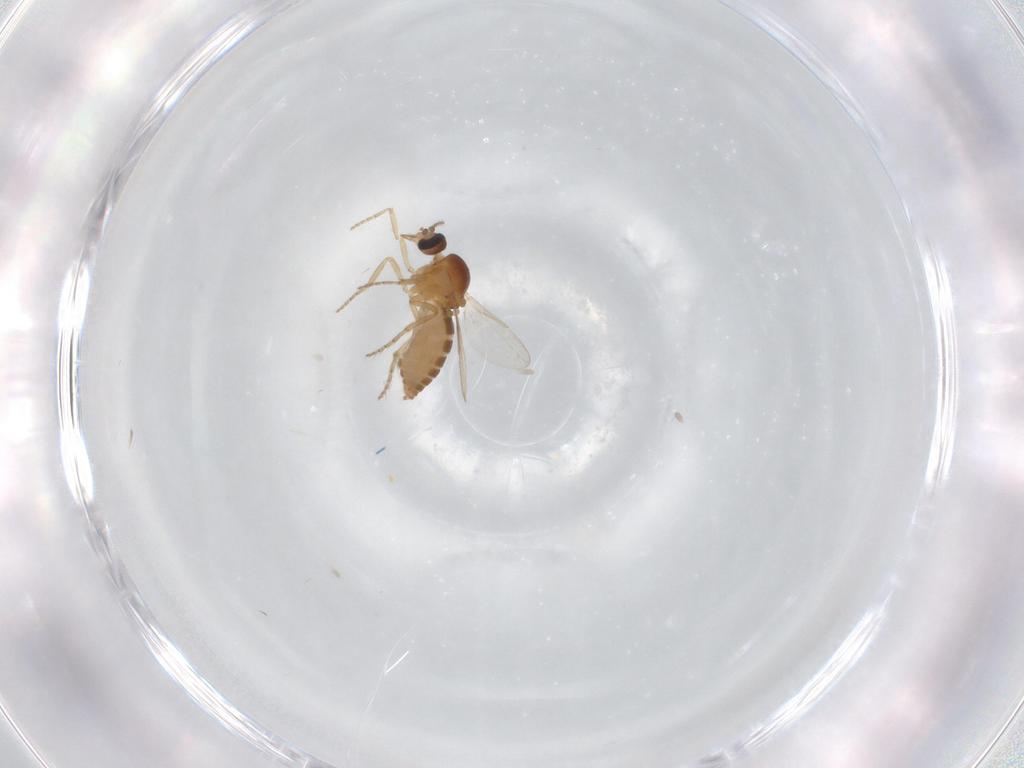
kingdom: Animalia
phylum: Arthropoda
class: Insecta
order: Diptera
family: Ceratopogonidae
